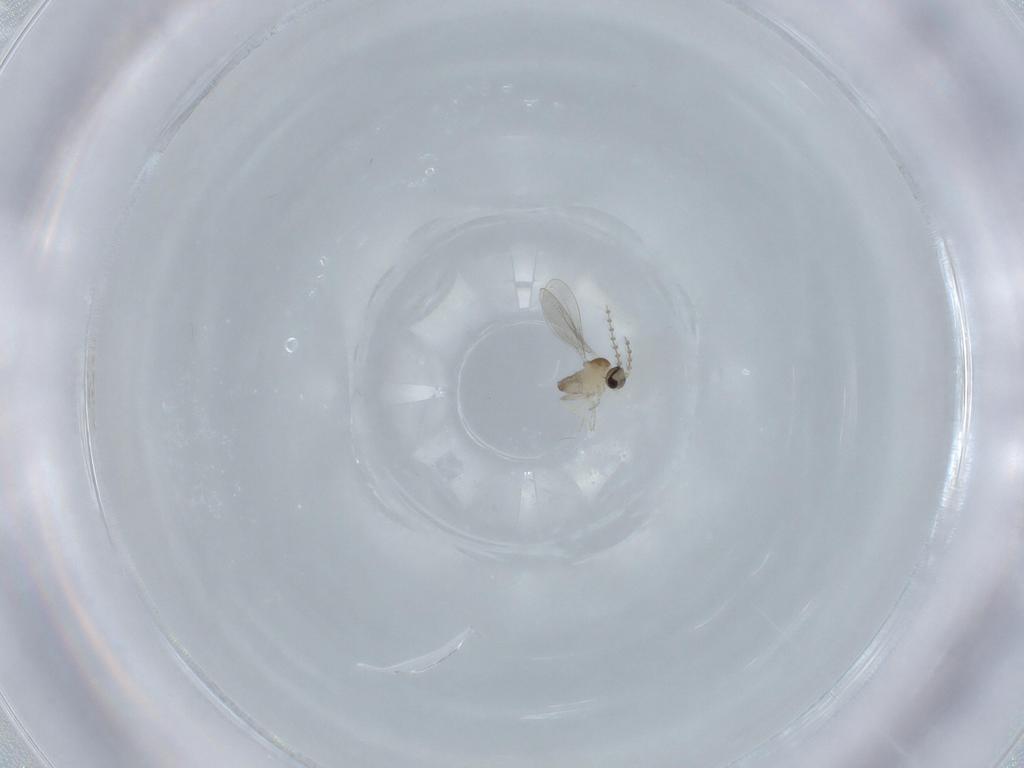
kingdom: Animalia
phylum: Arthropoda
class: Insecta
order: Diptera
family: Cecidomyiidae
